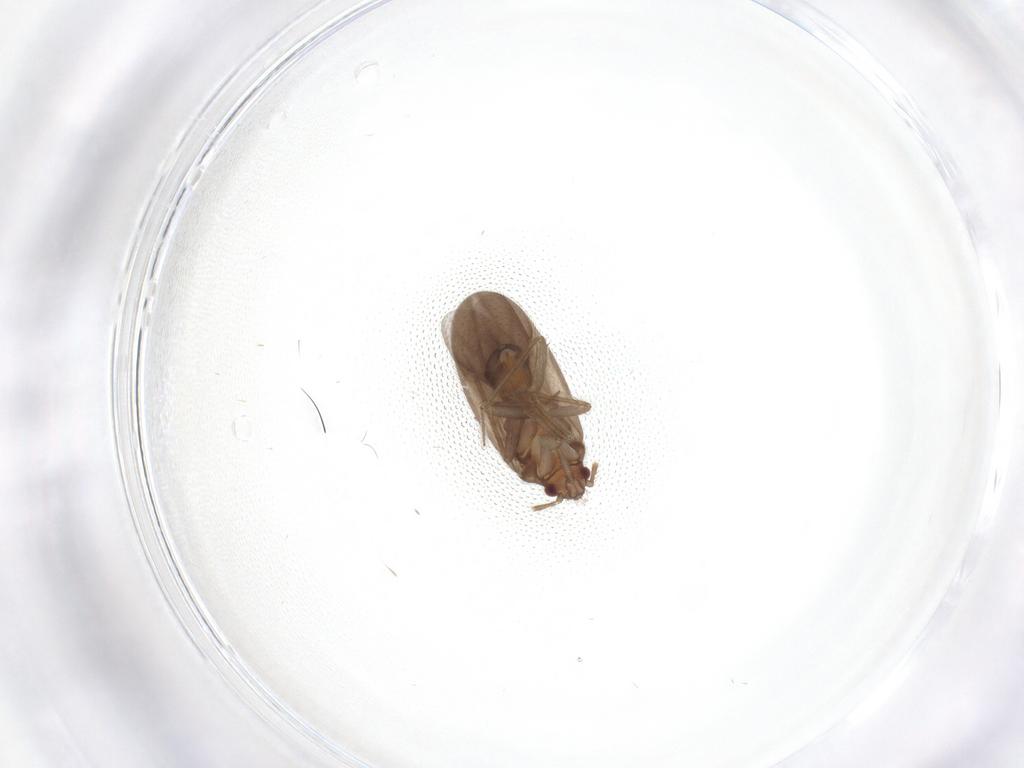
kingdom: Animalia
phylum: Arthropoda
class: Insecta
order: Hemiptera
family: Ceratocombidae
